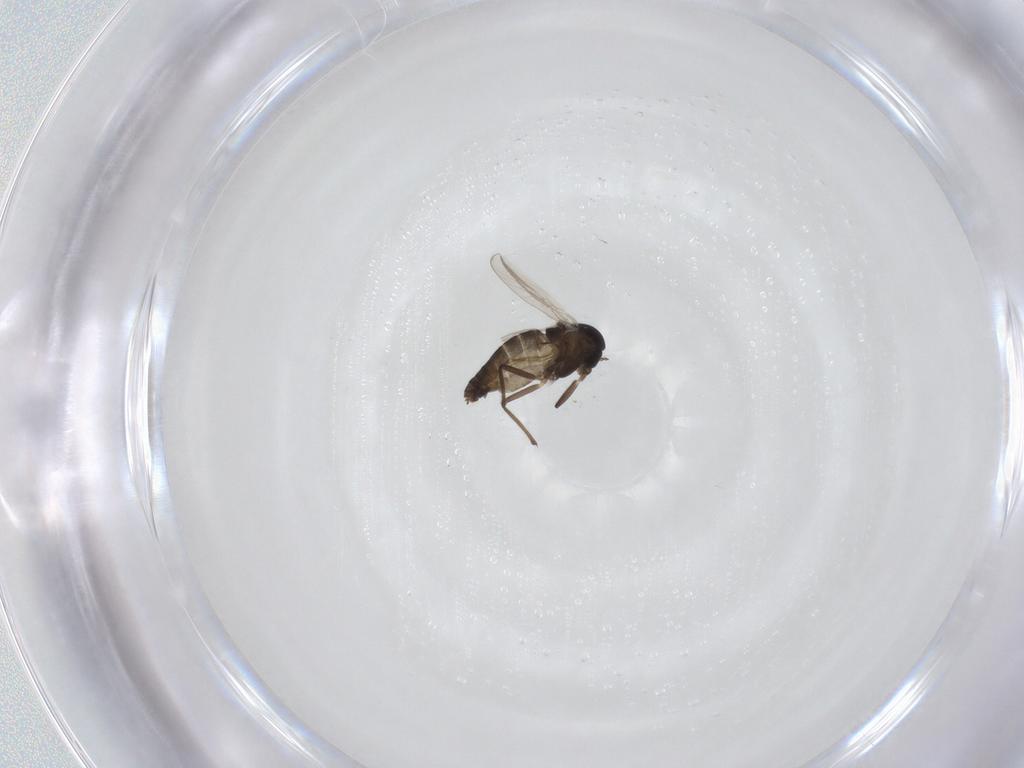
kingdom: Animalia
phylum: Arthropoda
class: Insecta
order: Diptera
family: Chironomidae
